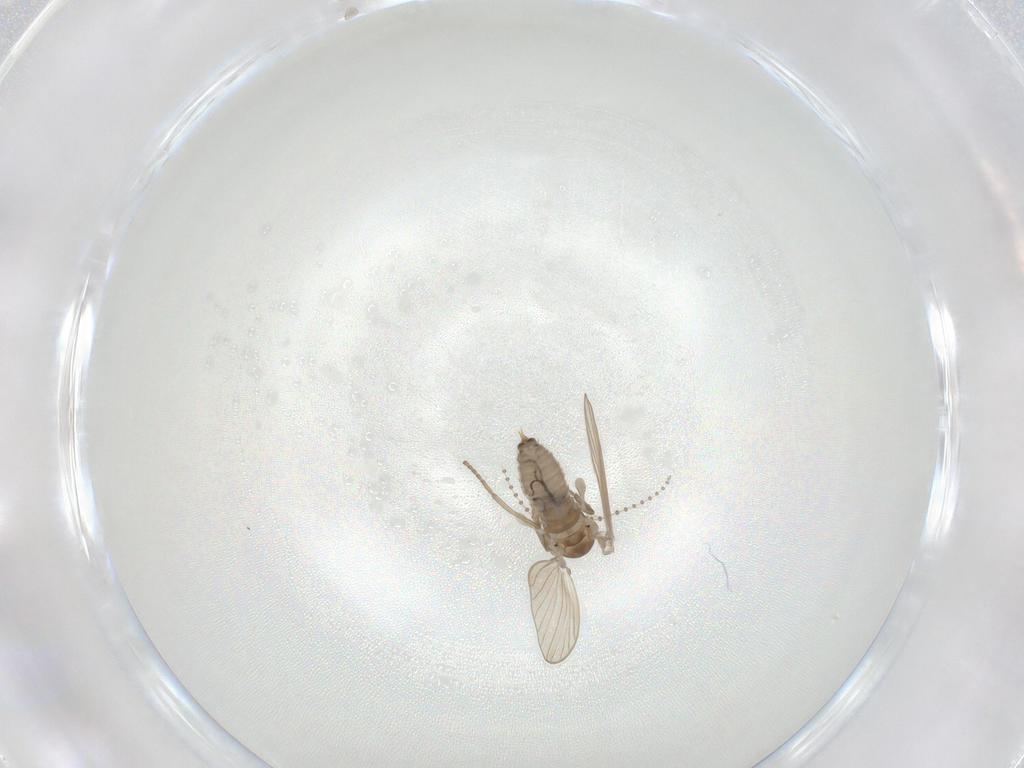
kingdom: Animalia
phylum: Arthropoda
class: Insecta
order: Diptera
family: Psychodidae
